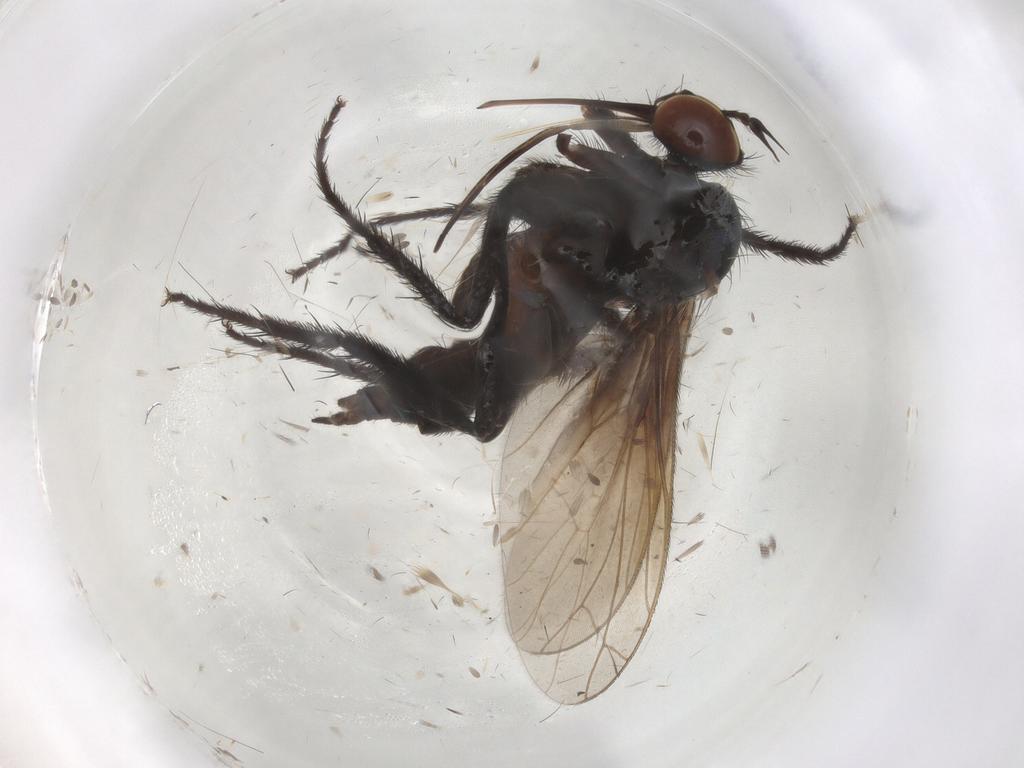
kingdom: Animalia
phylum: Arthropoda
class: Insecta
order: Diptera
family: Empididae
